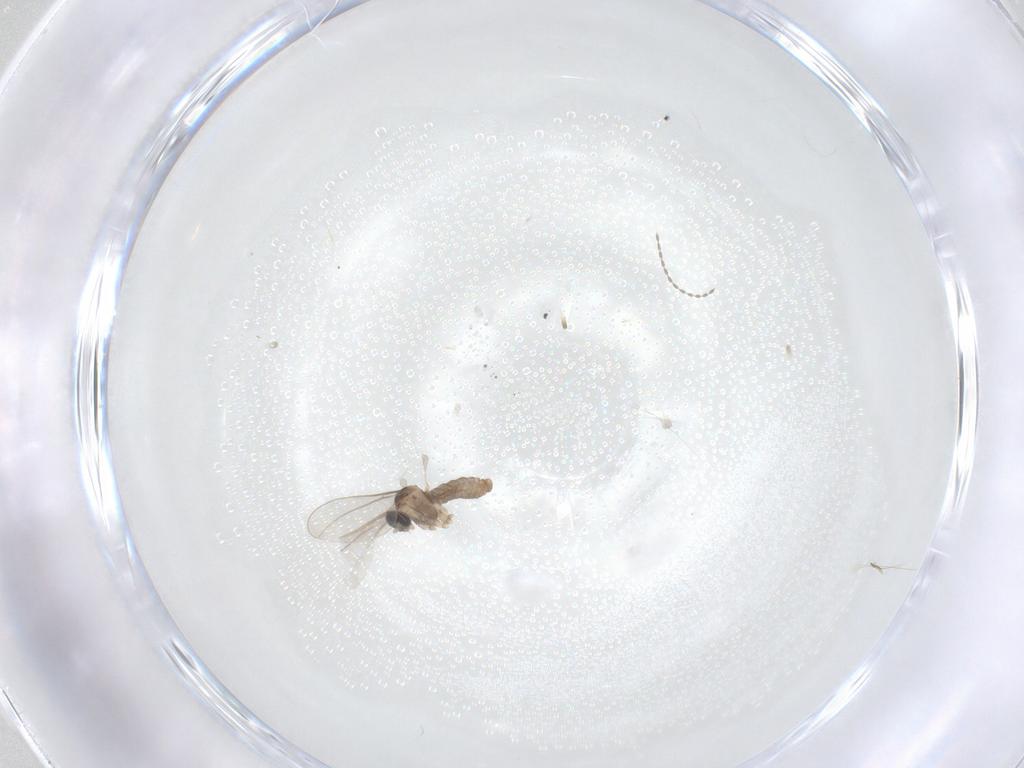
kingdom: Animalia
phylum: Arthropoda
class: Insecta
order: Diptera
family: Cecidomyiidae
